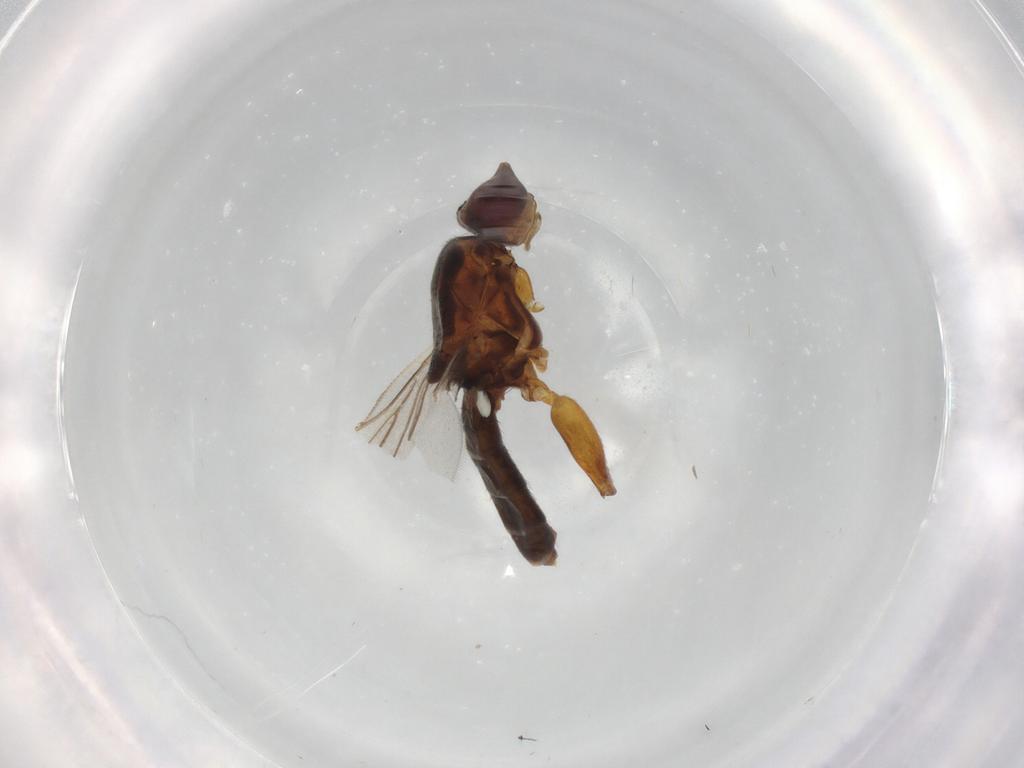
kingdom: Animalia
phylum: Arthropoda
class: Insecta
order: Diptera
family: Chloropidae
